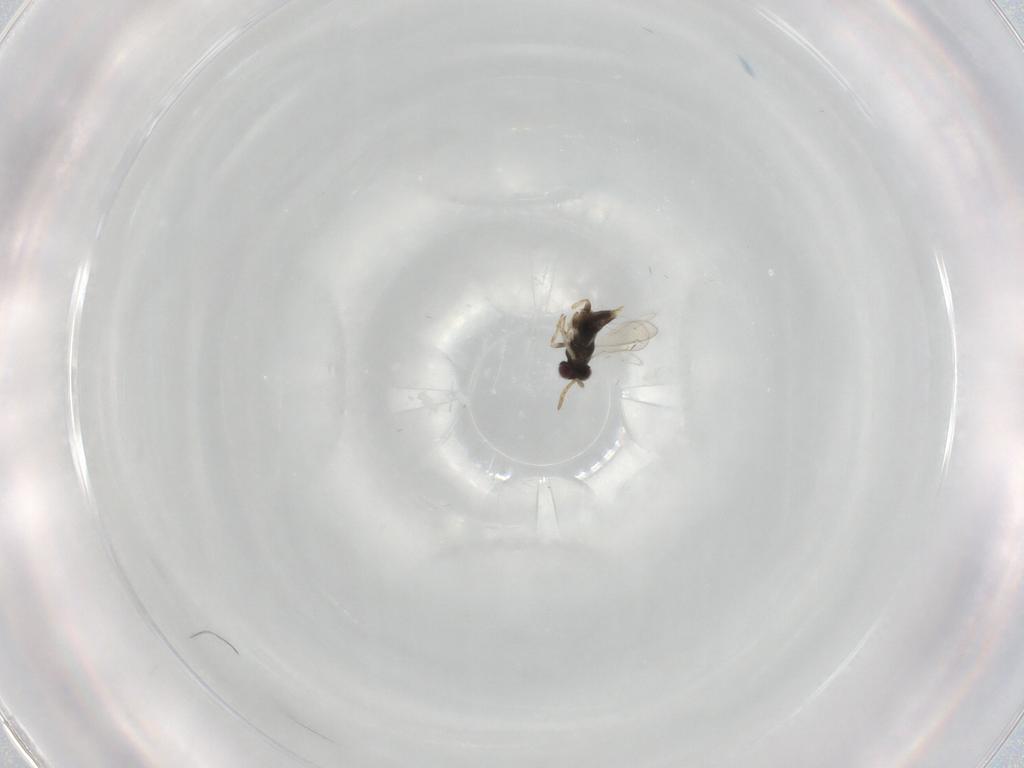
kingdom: Animalia
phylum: Arthropoda
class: Insecta
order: Hymenoptera
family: Aphelinidae
